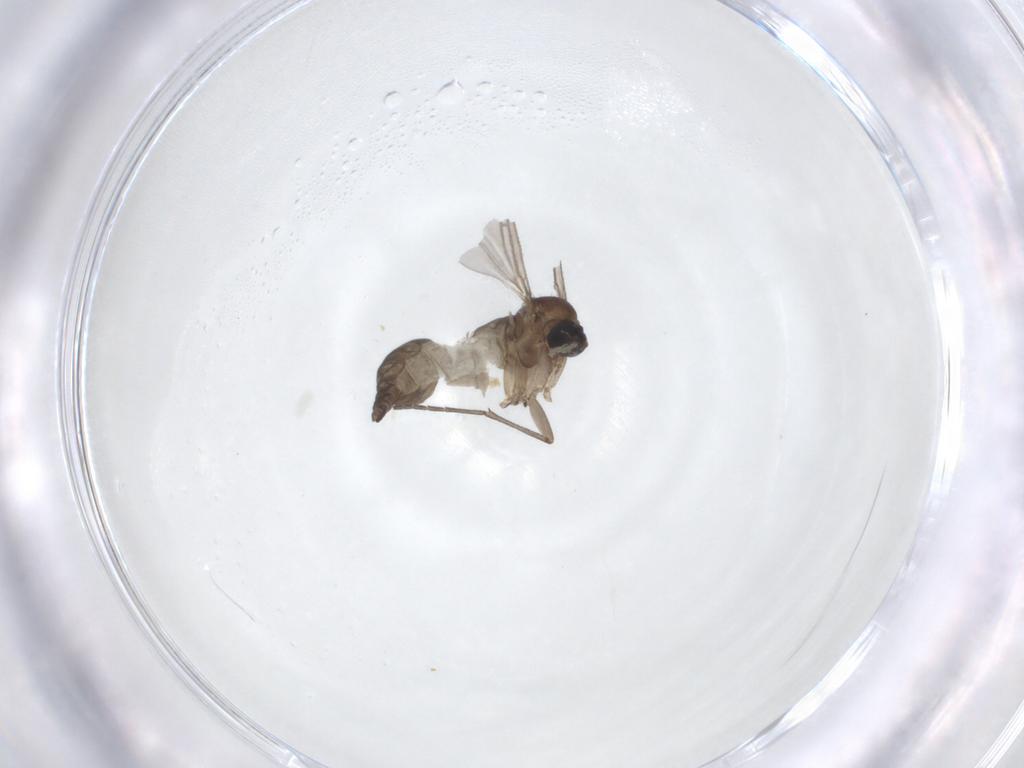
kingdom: Animalia
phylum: Arthropoda
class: Insecta
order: Diptera
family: Sciaridae
